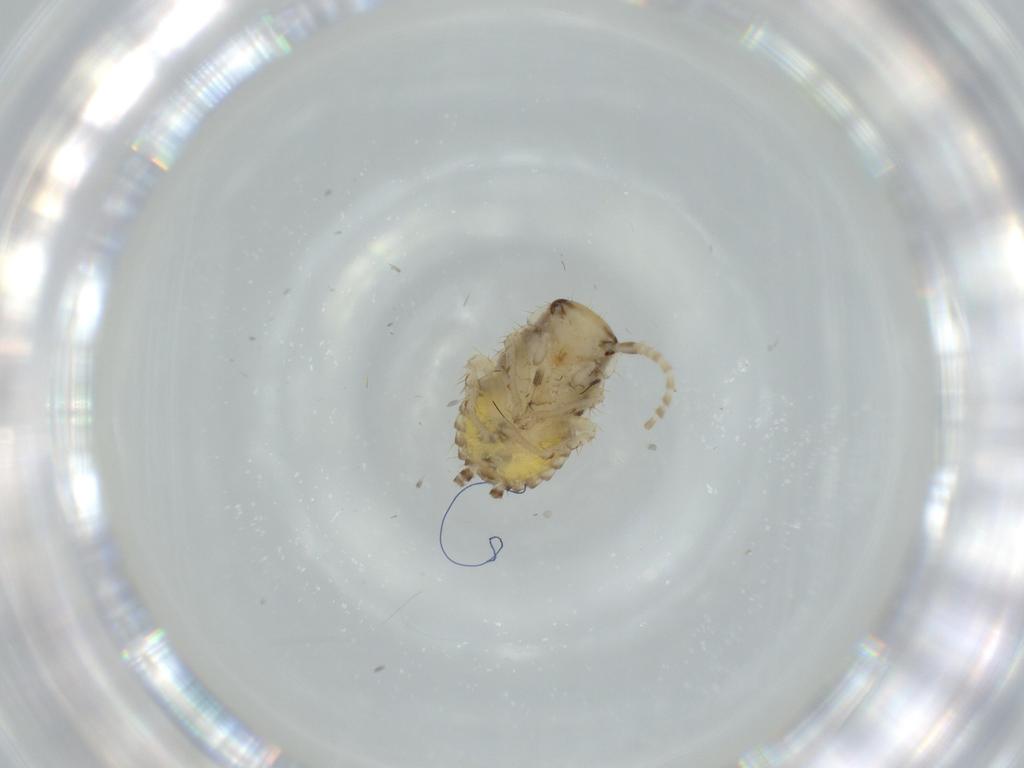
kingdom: Animalia
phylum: Arthropoda
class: Insecta
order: Blattodea
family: Ectobiidae
